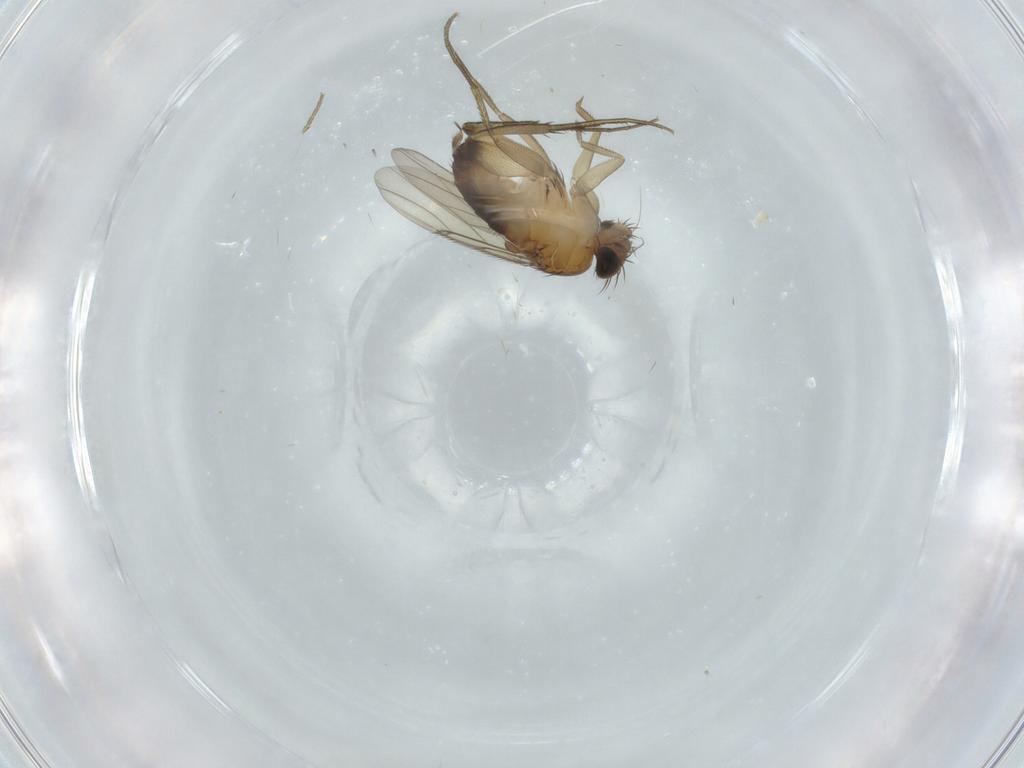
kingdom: Animalia
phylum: Arthropoda
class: Insecta
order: Diptera
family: Phoridae
